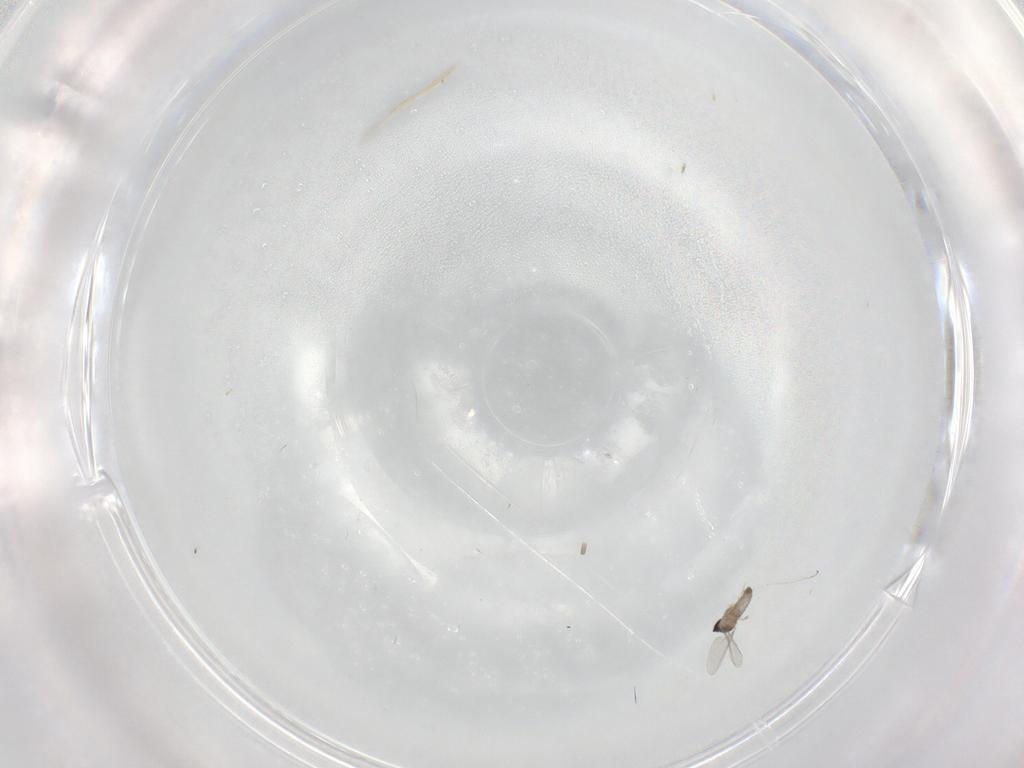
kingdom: Animalia
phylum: Arthropoda
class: Insecta
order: Diptera
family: Cecidomyiidae
